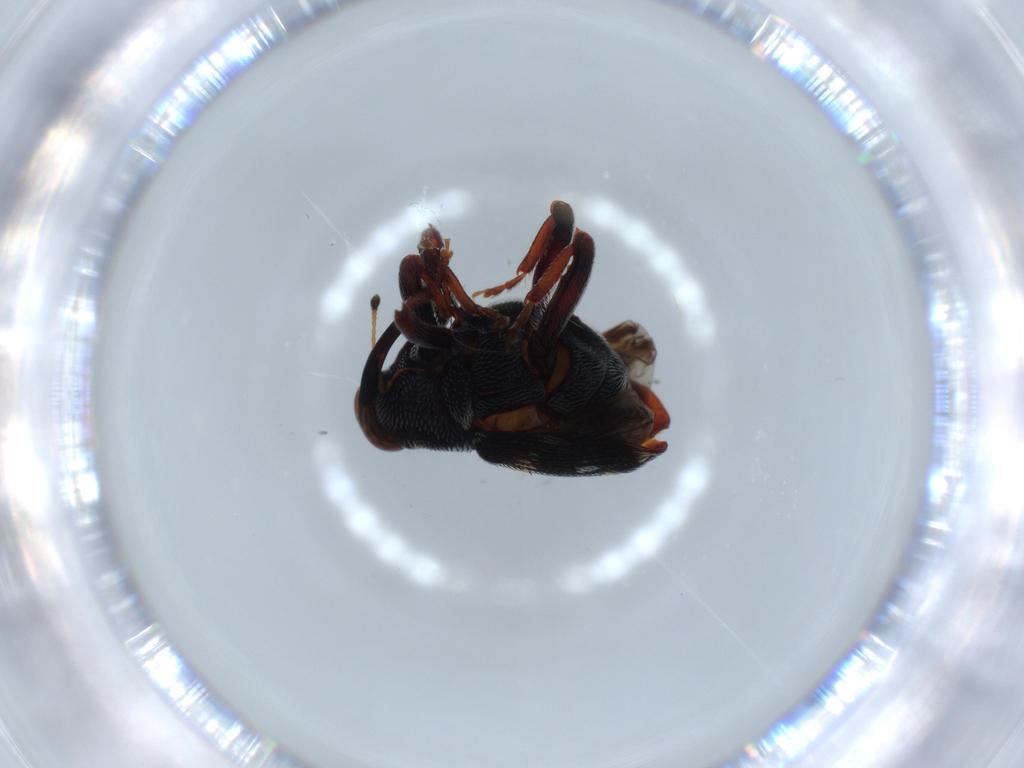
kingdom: Animalia
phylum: Arthropoda
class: Insecta
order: Coleoptera
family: Curculionidae
